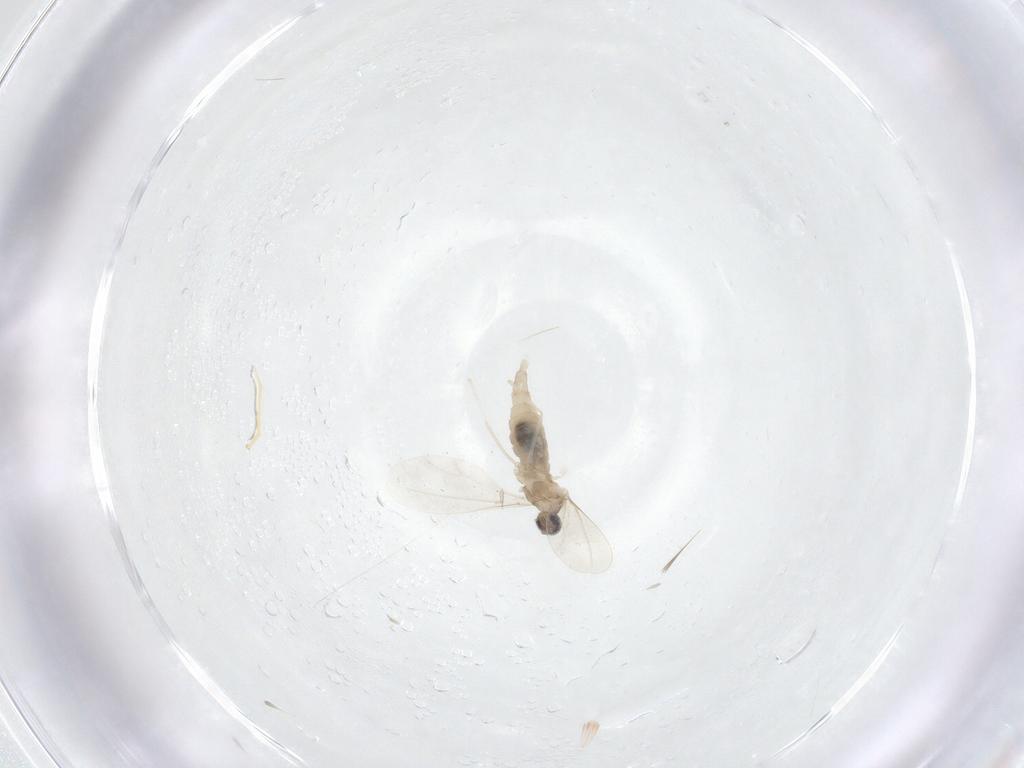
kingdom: Animalia
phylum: Arthropoda
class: Insecta
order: Diptera
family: Cecidomyiidae
